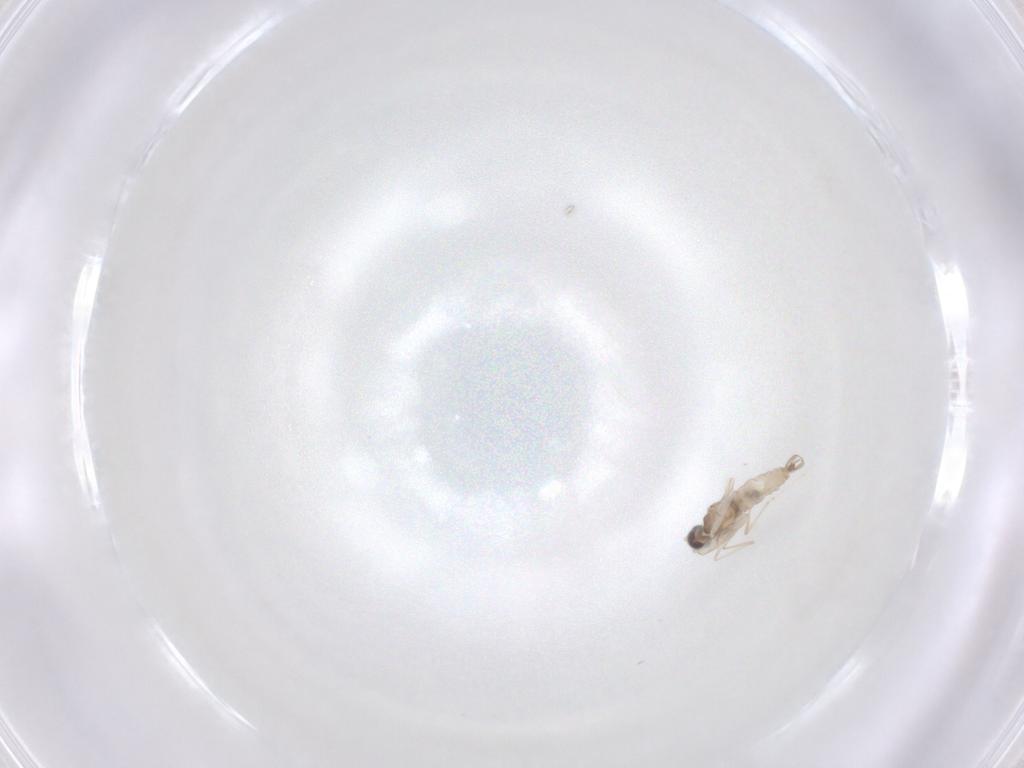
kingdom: Animalia
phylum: Arthropoda
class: Insecta
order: Diptera
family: Cecidomyiidae
